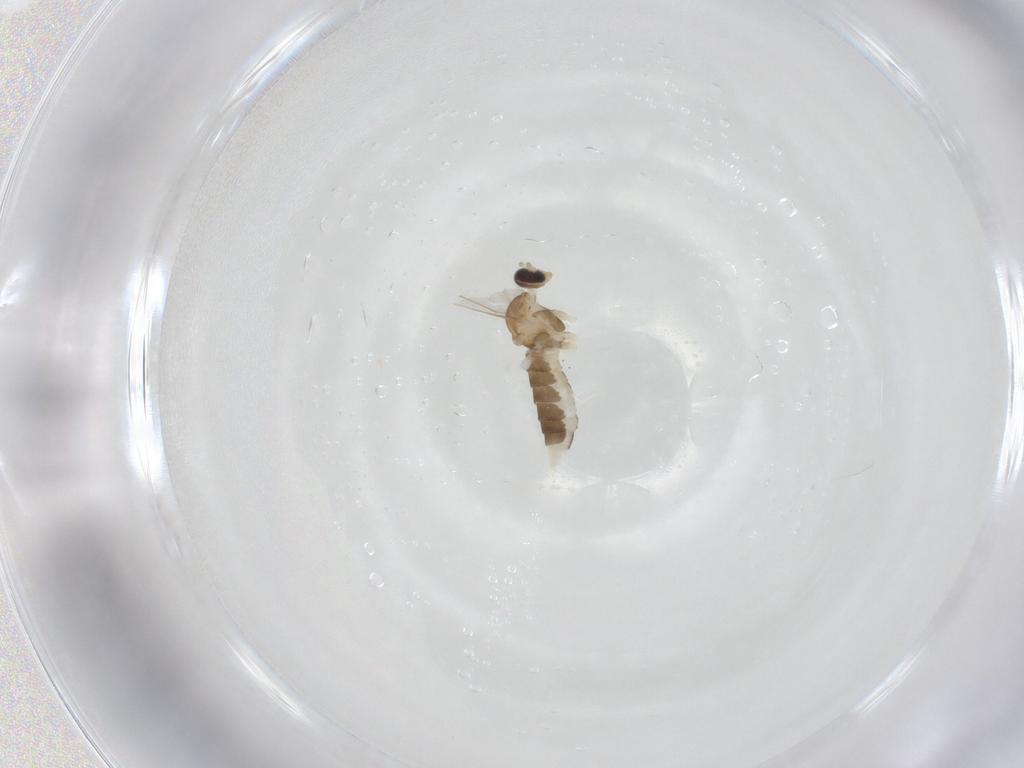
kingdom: Animalia
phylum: Arthropoda
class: Insecta
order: Diptera
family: Cecidomyiidae
